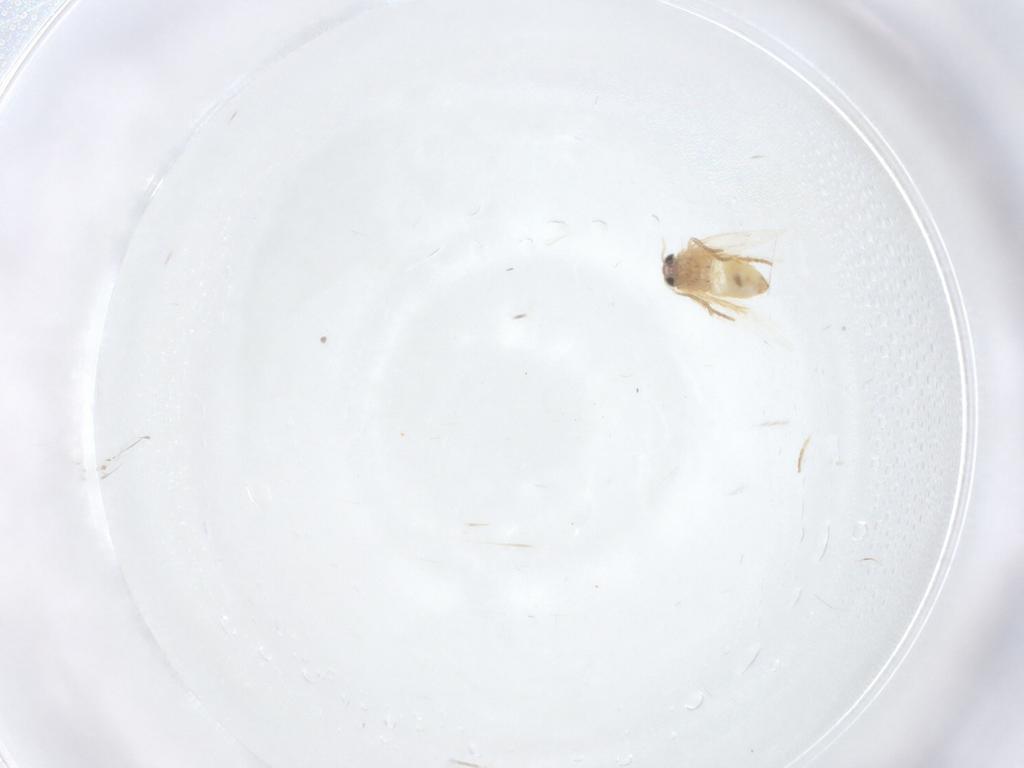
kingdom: Animalia
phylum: Arthropoda
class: Insecta
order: Lepidoptera
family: Crambidae
